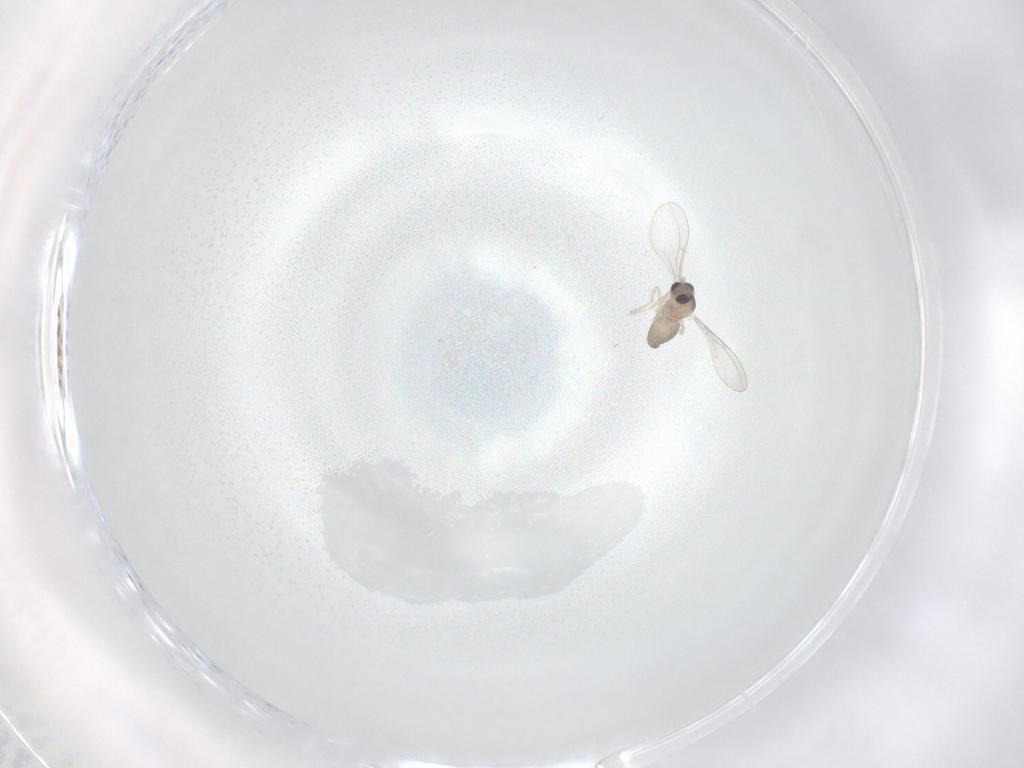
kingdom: Animalia
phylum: Arthropoda
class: Insecta
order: Diptera
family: Cecidomyiidae
